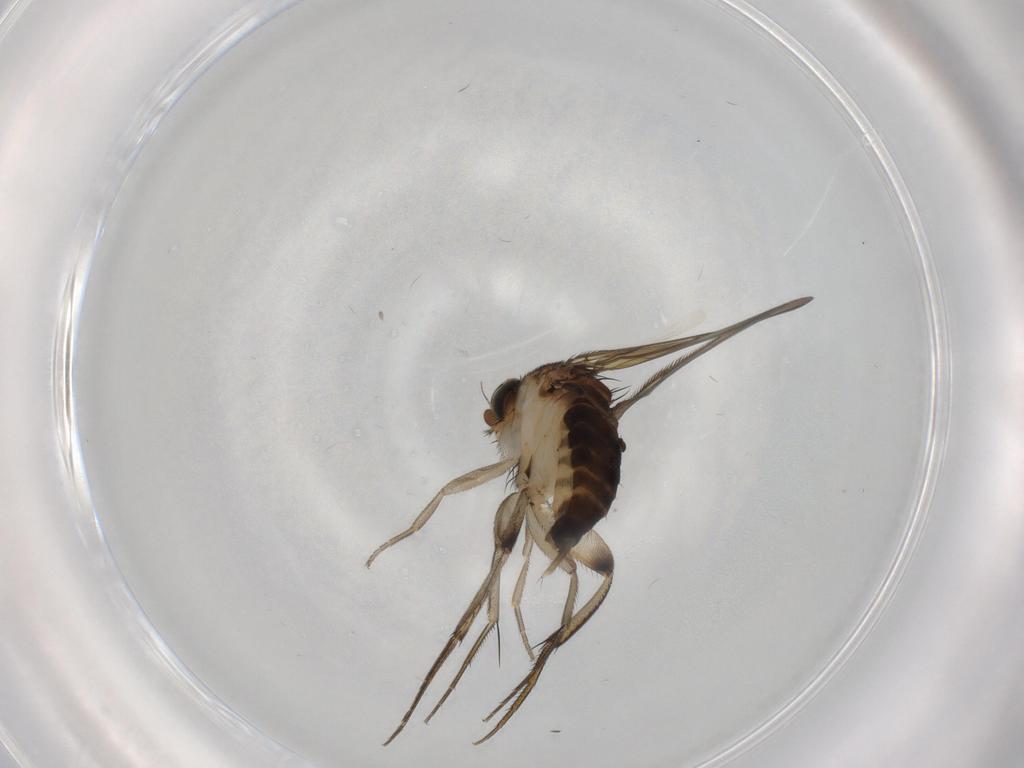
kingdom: Animalia
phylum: Arthropoda
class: Insecta
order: Diptera
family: Phoridae
